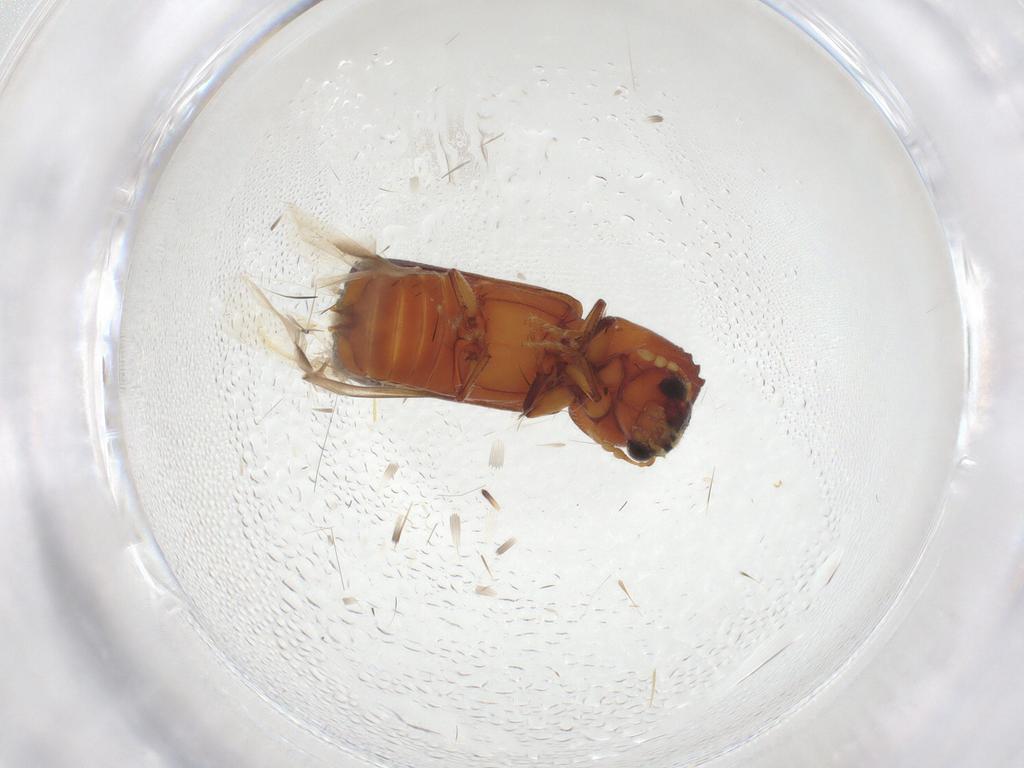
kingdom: Animalia
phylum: Arthropoda
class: Insecta
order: Coleoptera
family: Bostrichidae
